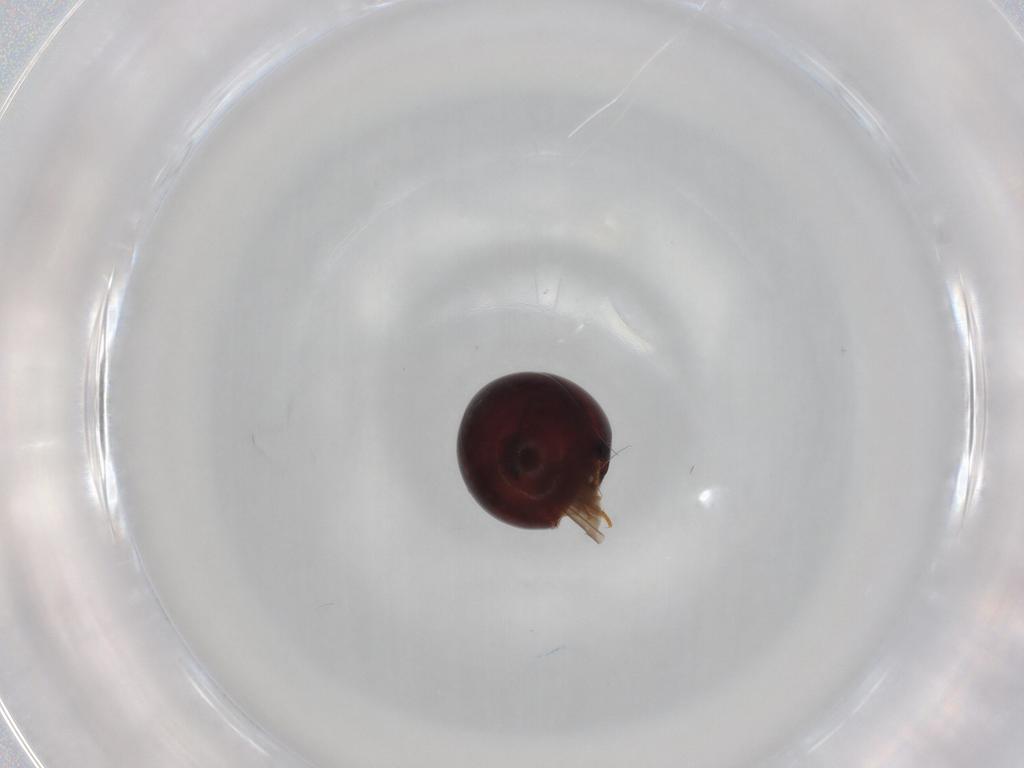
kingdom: Animalia
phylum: Arthropoda
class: Insecta
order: Coleoptera
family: Leiodidae
